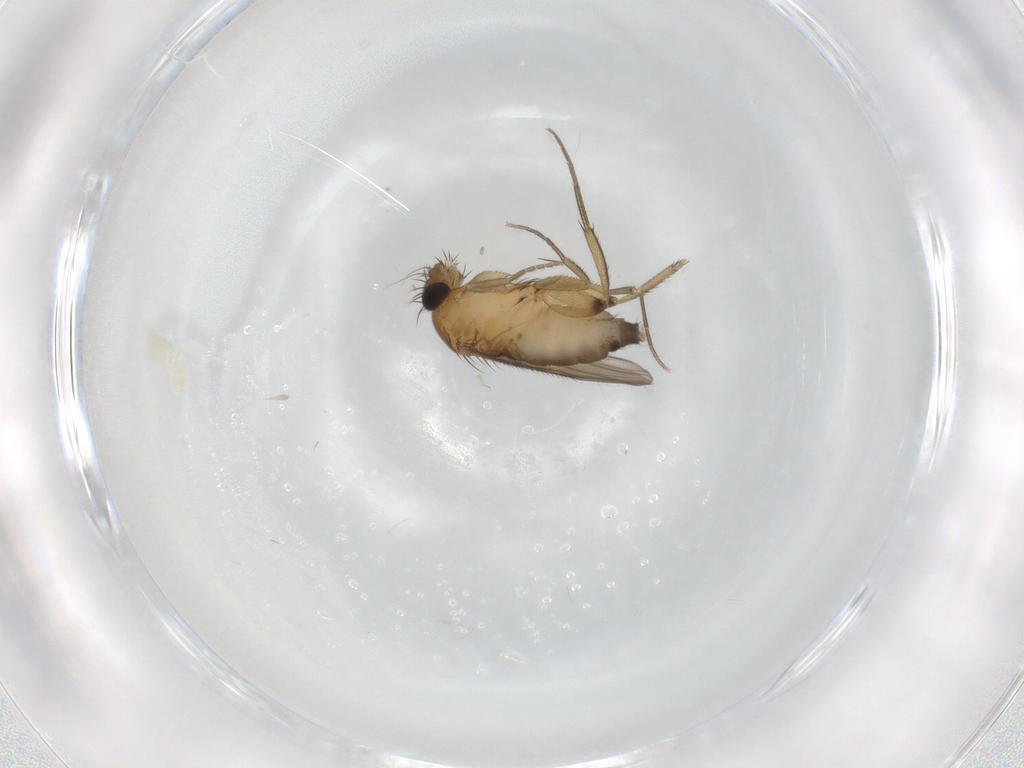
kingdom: Animalia
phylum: Arthropoda
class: Insecta
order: Diptera
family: Phoridae
